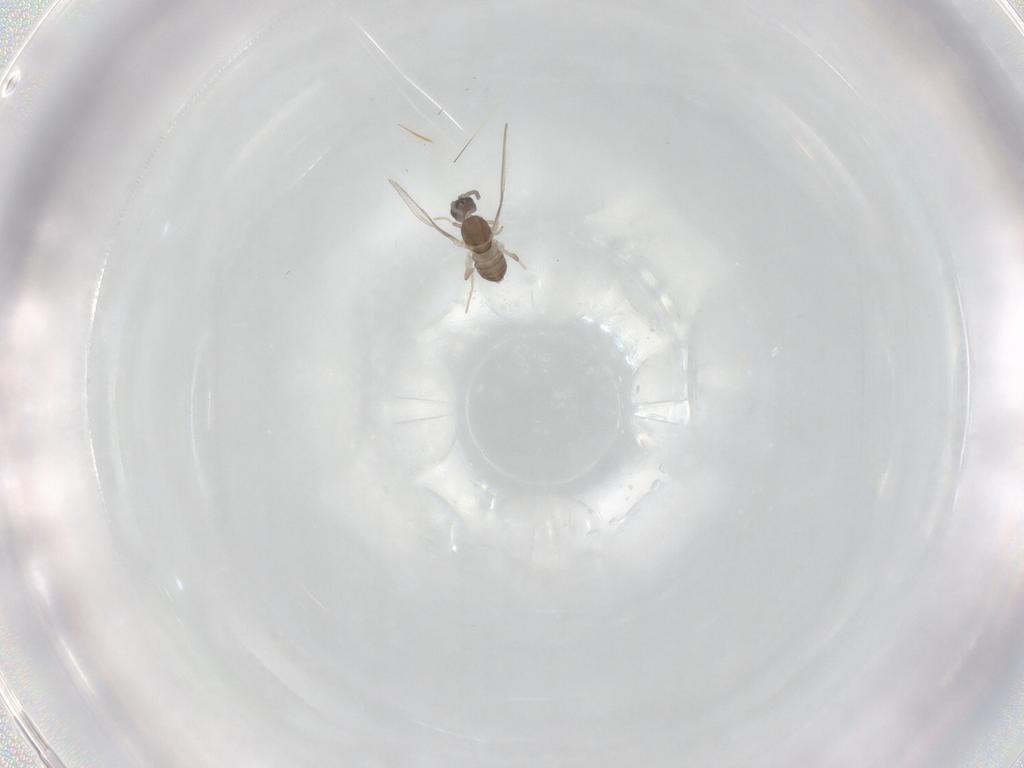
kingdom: Animalia
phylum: Arthropoda
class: Insecta
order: Diptera
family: Cecidomyiidae
